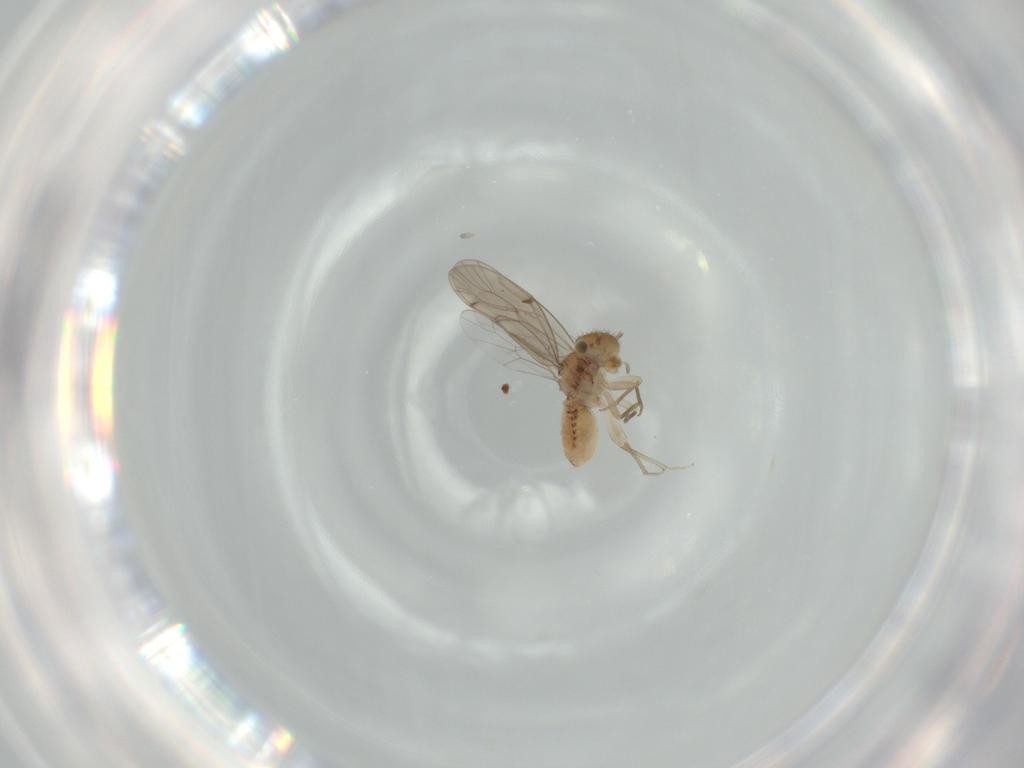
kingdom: Animalia
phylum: Arthropoda
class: Insecta
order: Psocodea
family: Ectopsocidae
